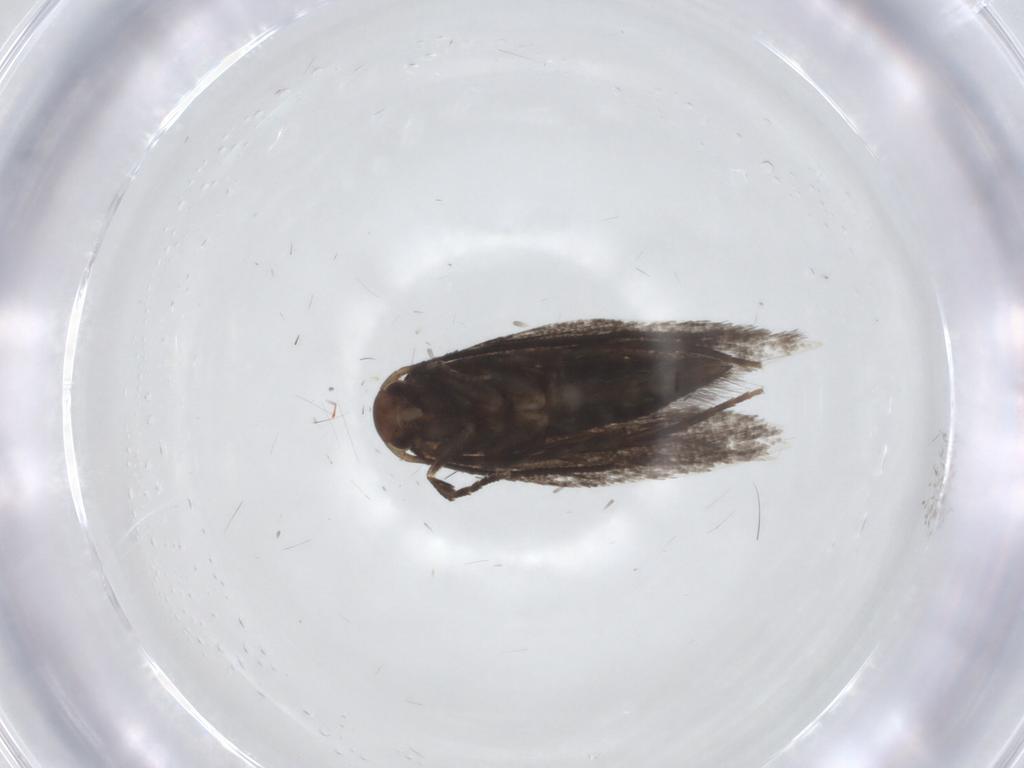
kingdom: Animalia
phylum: Arthropoda
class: Insecta
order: Lepidoptera
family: Elachistidae
